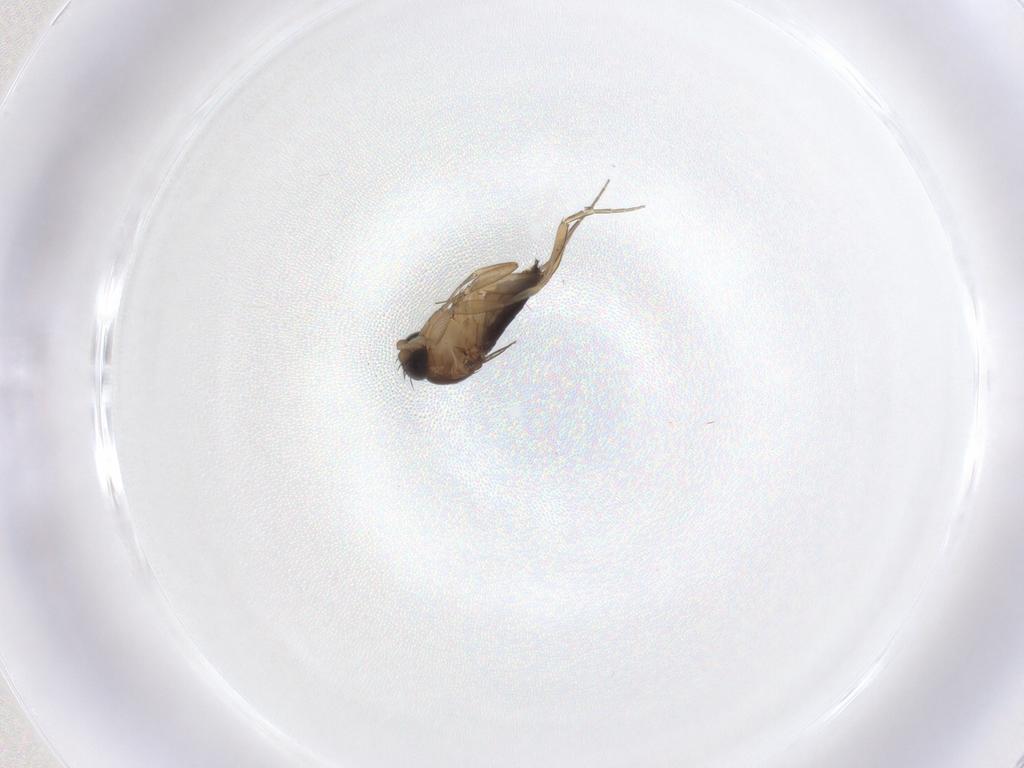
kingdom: Animalia
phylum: Arthropoda
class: Insecta
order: Diptera
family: Phoridae
